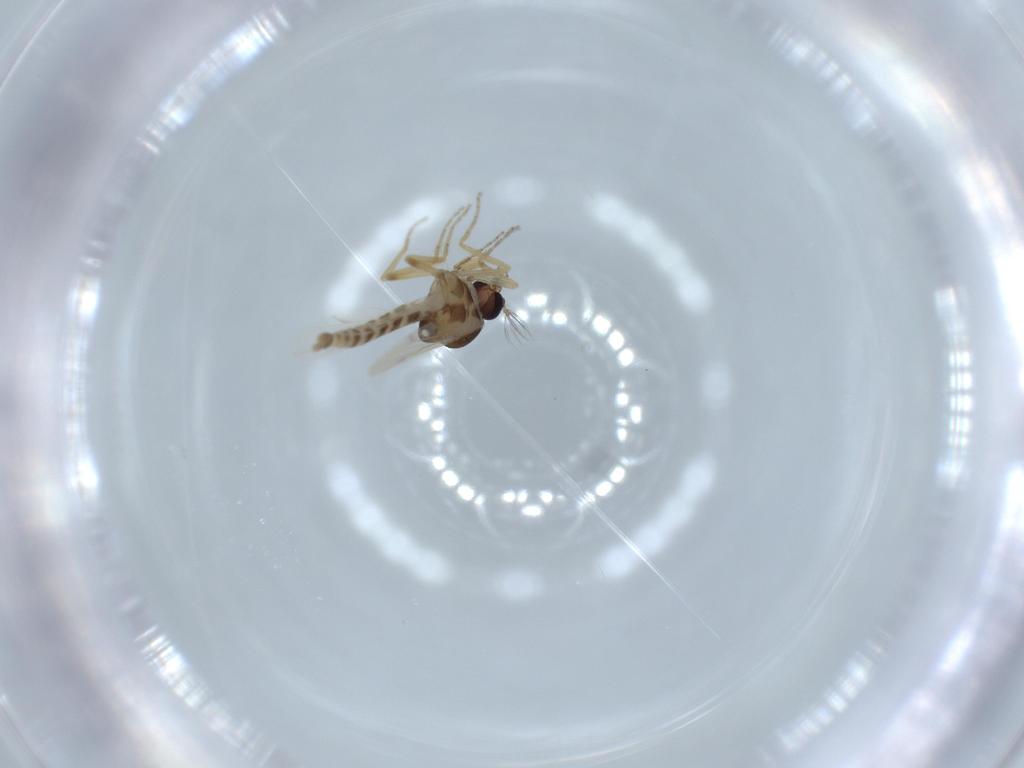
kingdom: Animalia
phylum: Arthropoda
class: Insecta
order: Diptera
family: Ceratopogonidae
